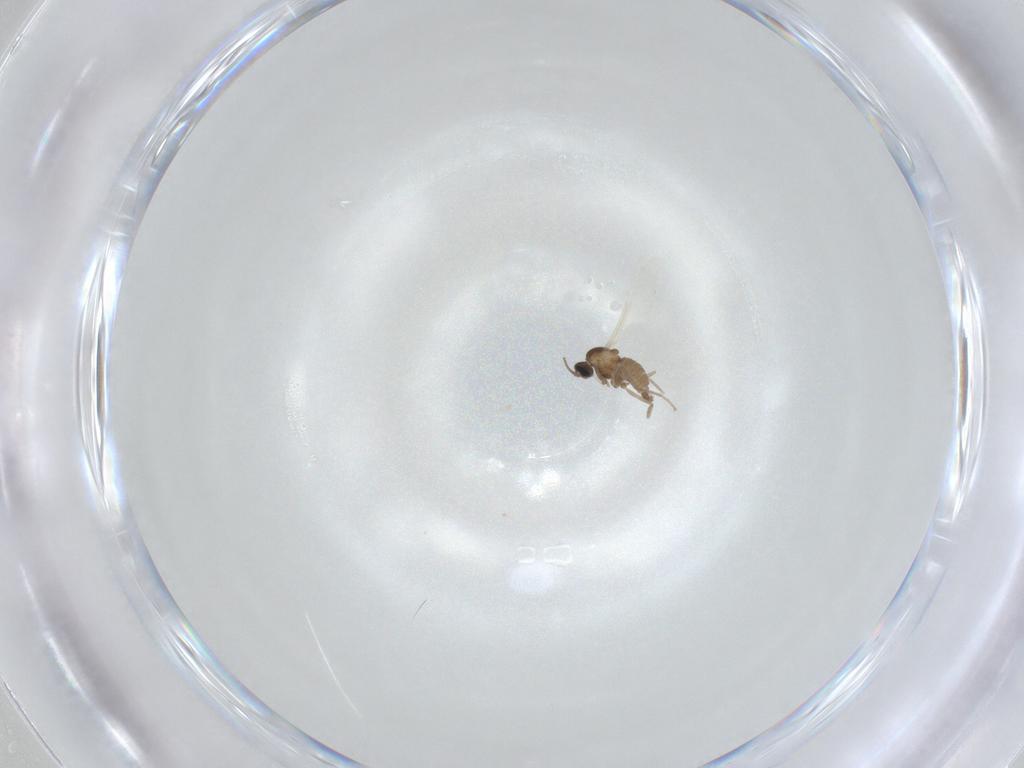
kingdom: Animalia
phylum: Arthropoda
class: Insecta
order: Diptera
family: Cecidomyiidae
